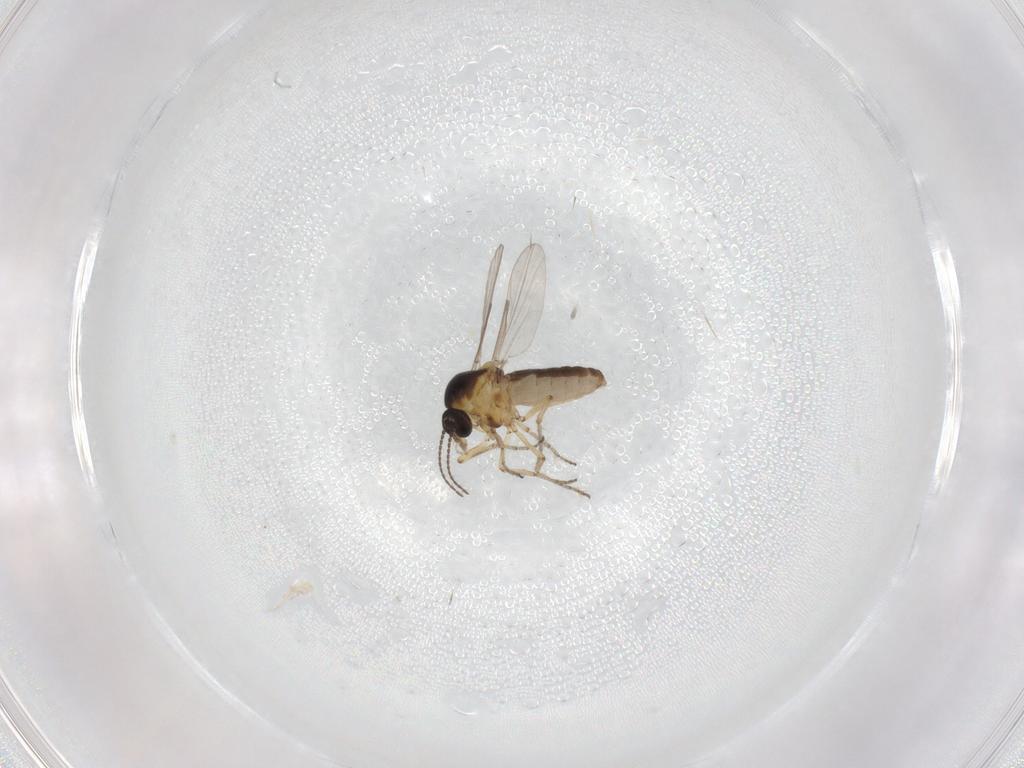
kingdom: Animalia
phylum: Arthropoda
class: Insecta
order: Diptera
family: Ceratopogonidae
